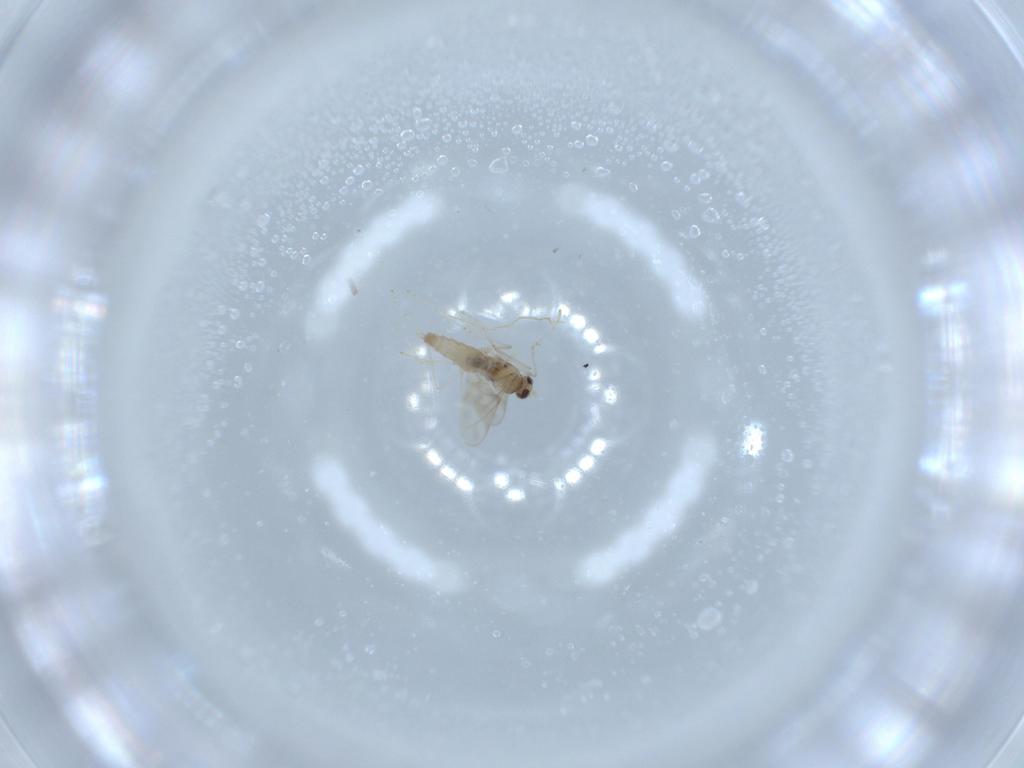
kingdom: Animalia
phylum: Arthropoda
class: Insecta
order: Diptera
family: Cecidomyiidae
